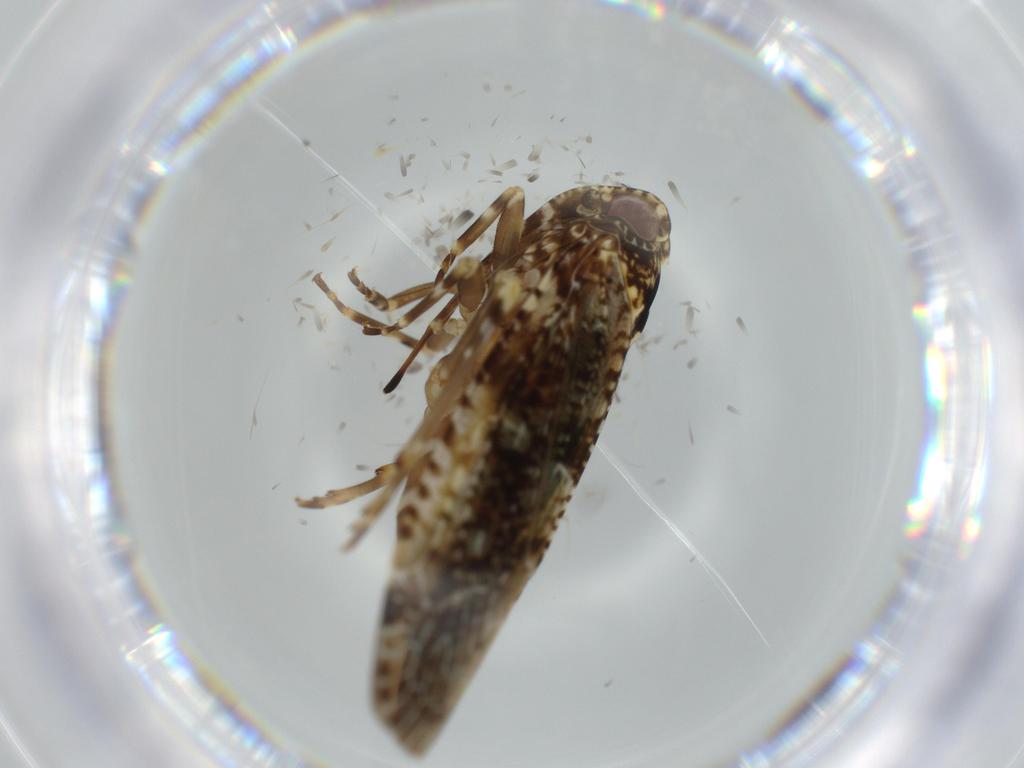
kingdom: Animalia
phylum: Arthropoda
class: Insecta
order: Hemiptera
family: Achilidae
